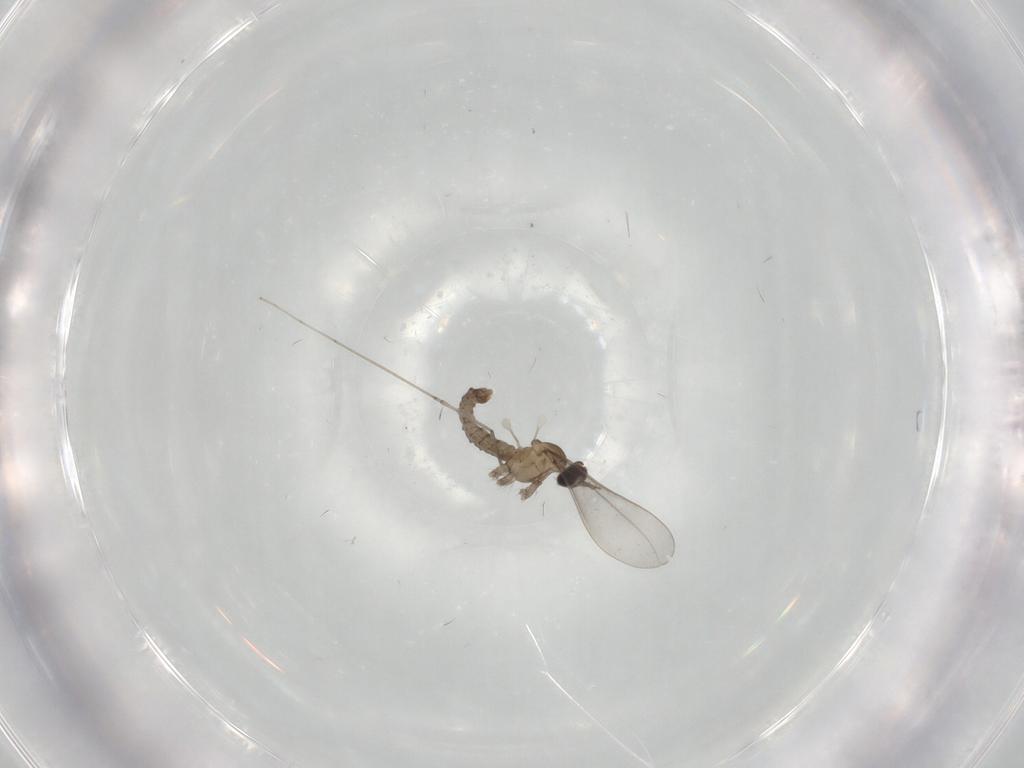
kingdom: Animalia
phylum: Arthropoda
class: Insecta
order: Diptera
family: Cecidomyiidae
